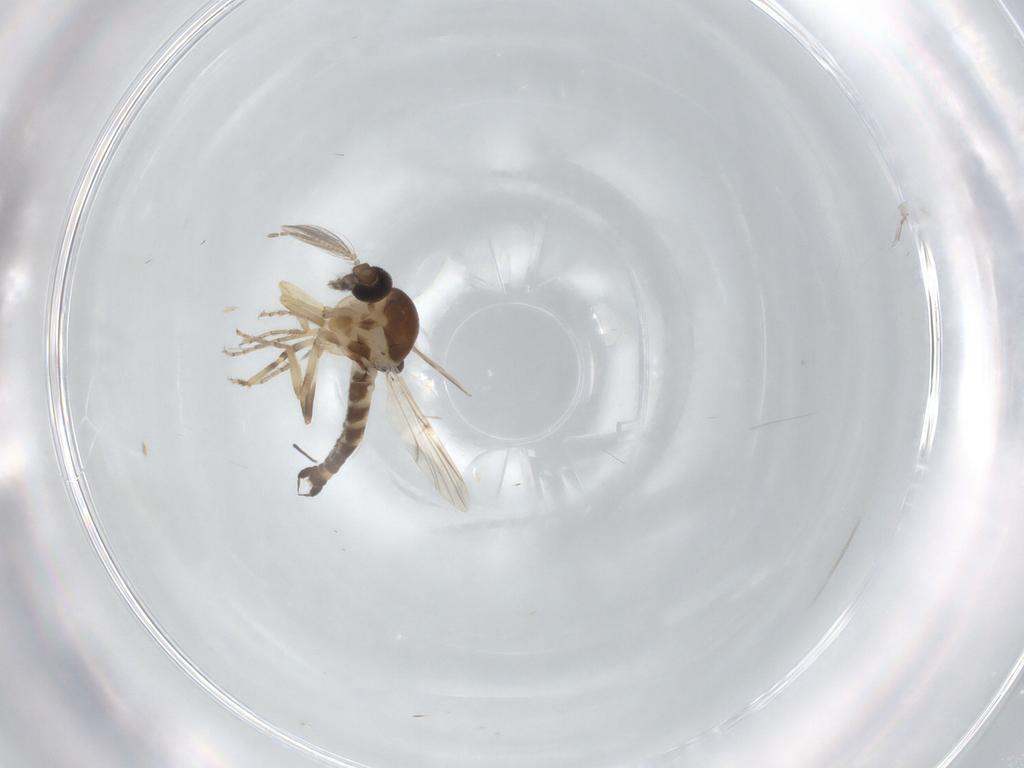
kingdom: Animalia
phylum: Arthropoda
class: Insecta
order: Diptera
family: Ceratopogonidae
